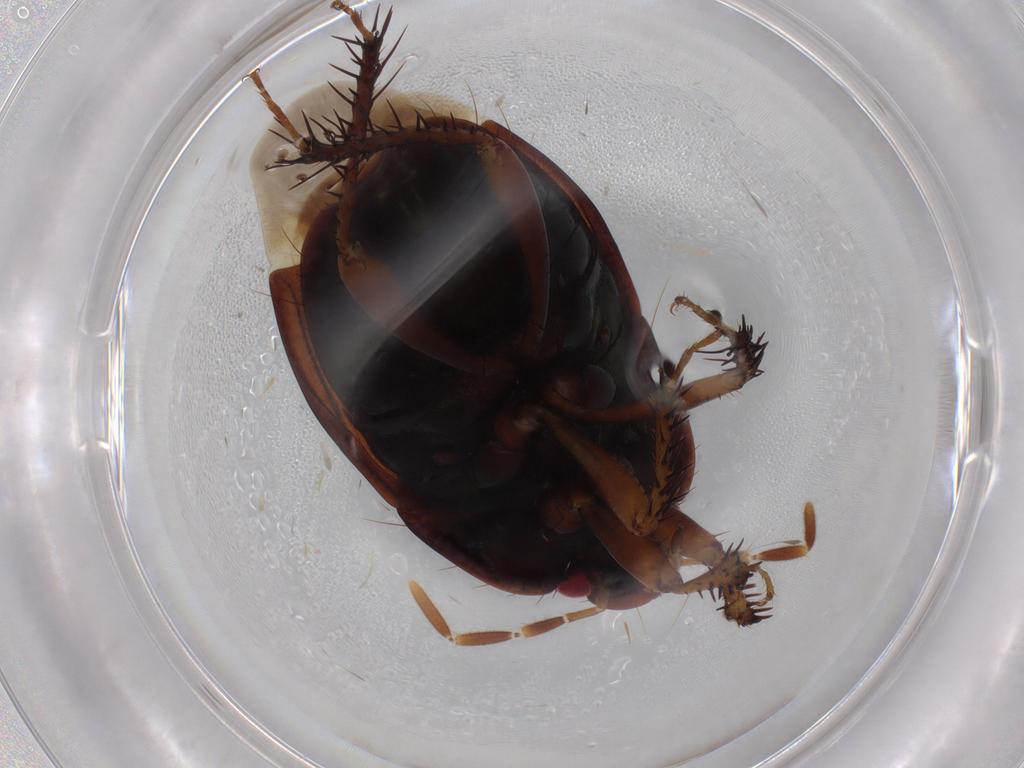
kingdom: Animalia
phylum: Arthropoda
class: Insecta
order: Hemiptera
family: Cydnidae
